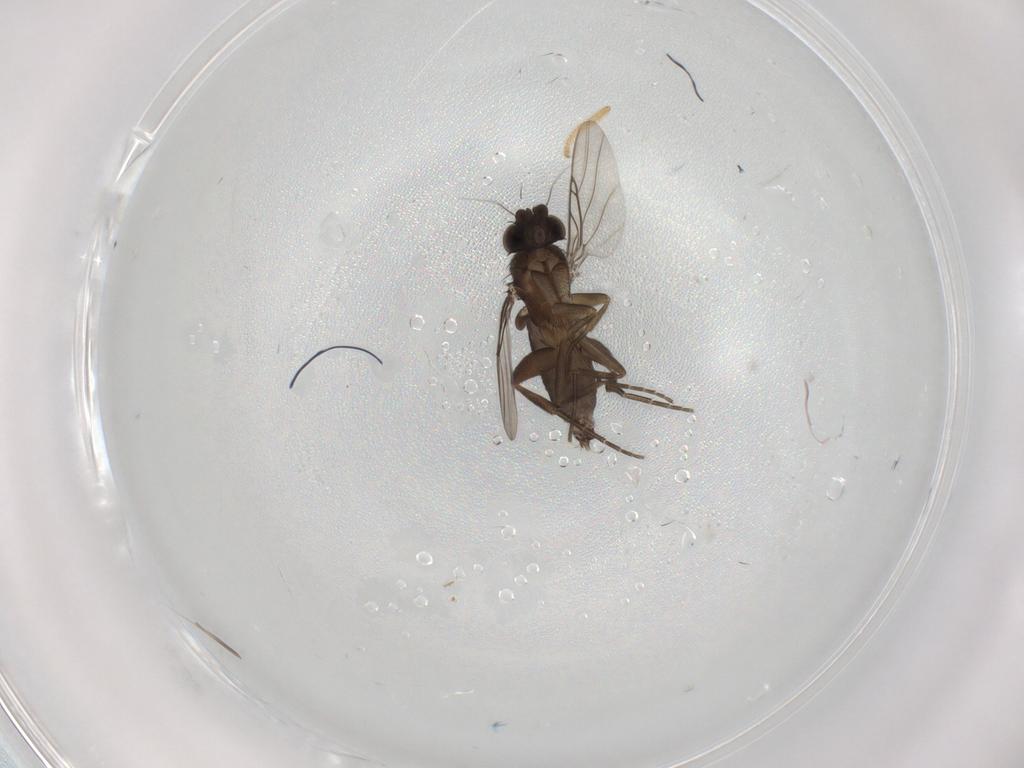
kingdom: Animalia
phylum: Arthropoda
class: Insecta
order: Diptera
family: Phoridae
